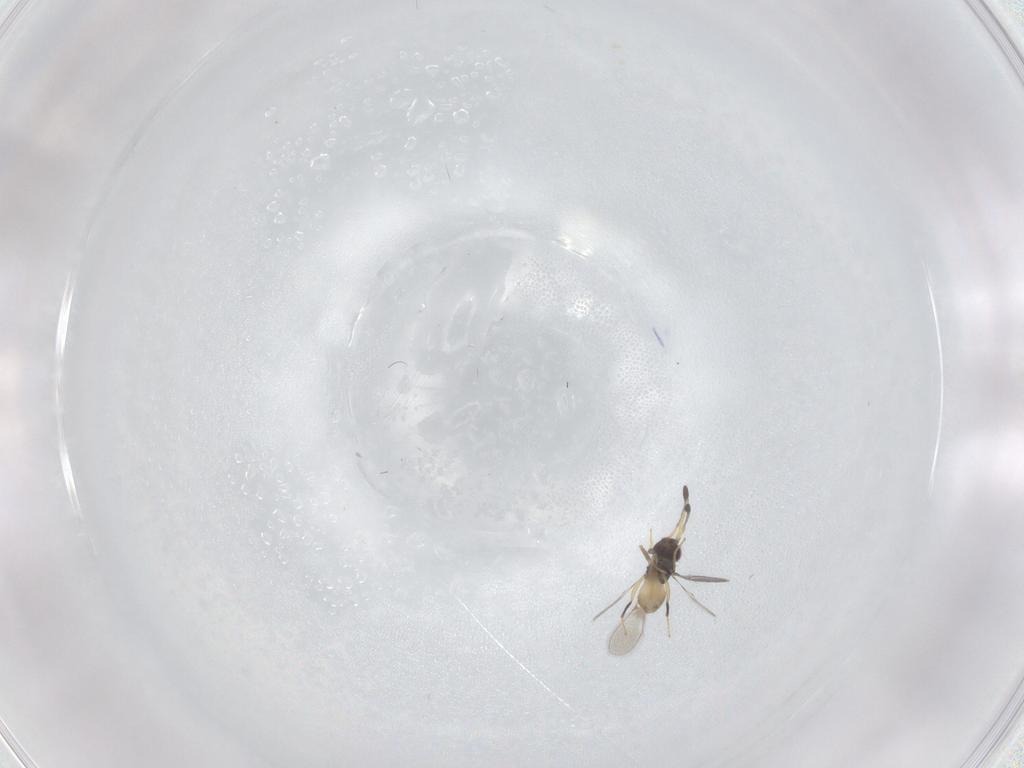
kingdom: Animalia
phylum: Arthropoda
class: Insecta
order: Hymenoptera
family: Mymaridae
